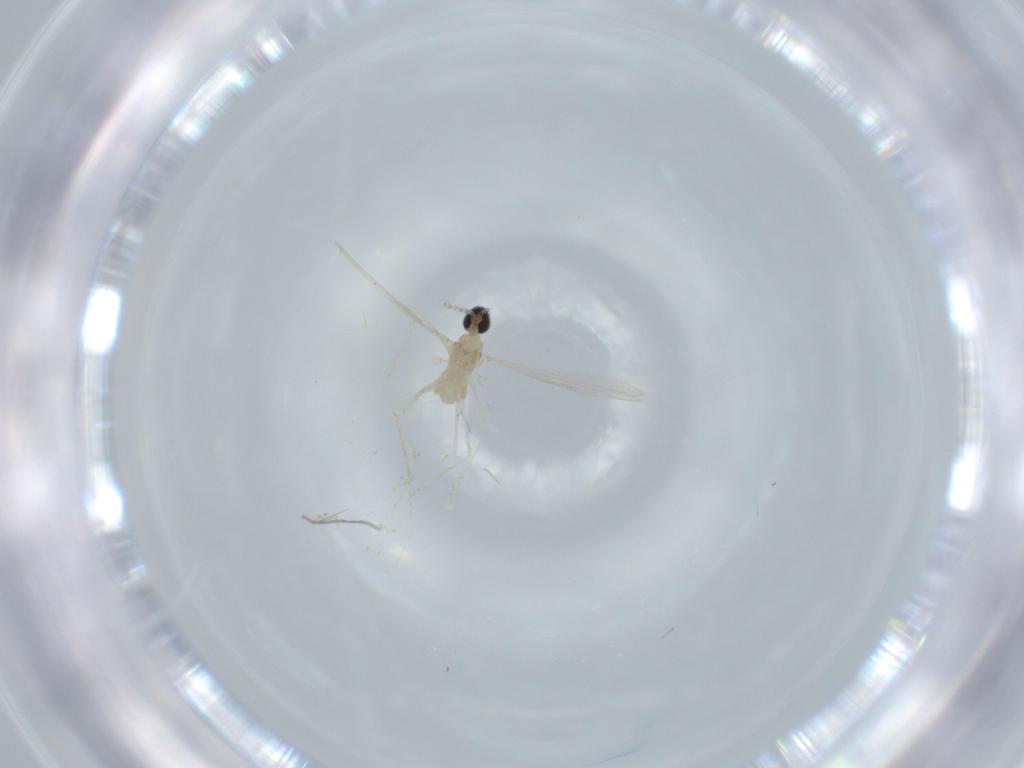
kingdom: Animalia
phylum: Arthropoda
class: Insecta
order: Diptera
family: Cecidomyiidae
